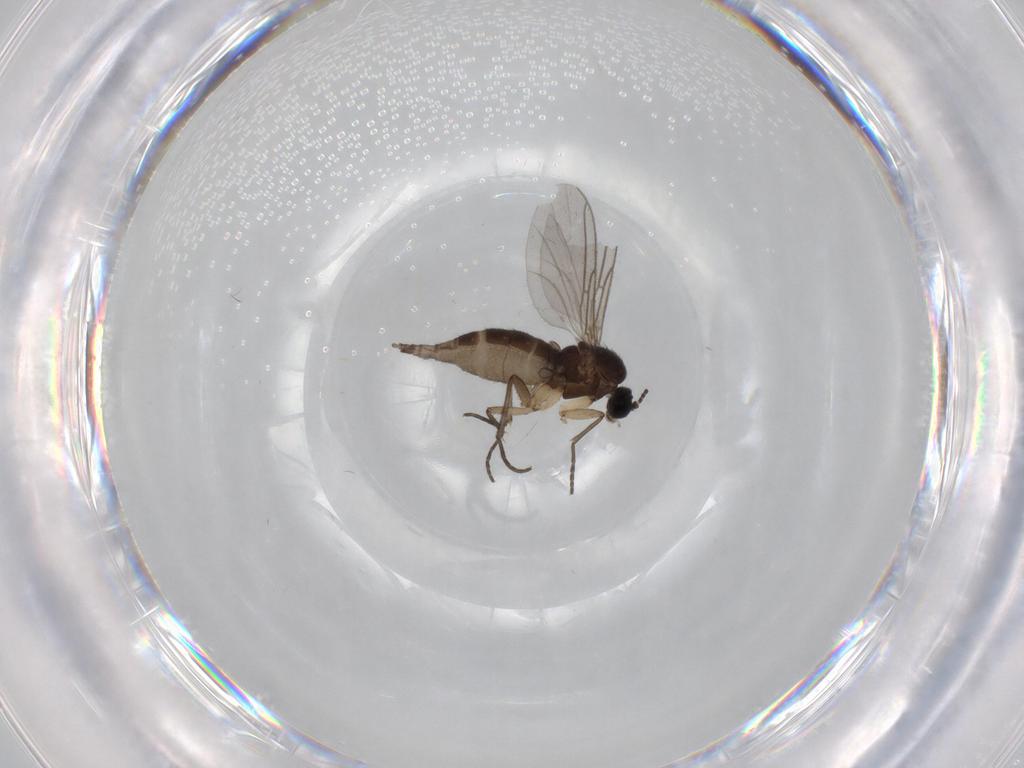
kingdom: Animalia
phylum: Arthropoda
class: Insecta
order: Diptera
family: Sciaridae
